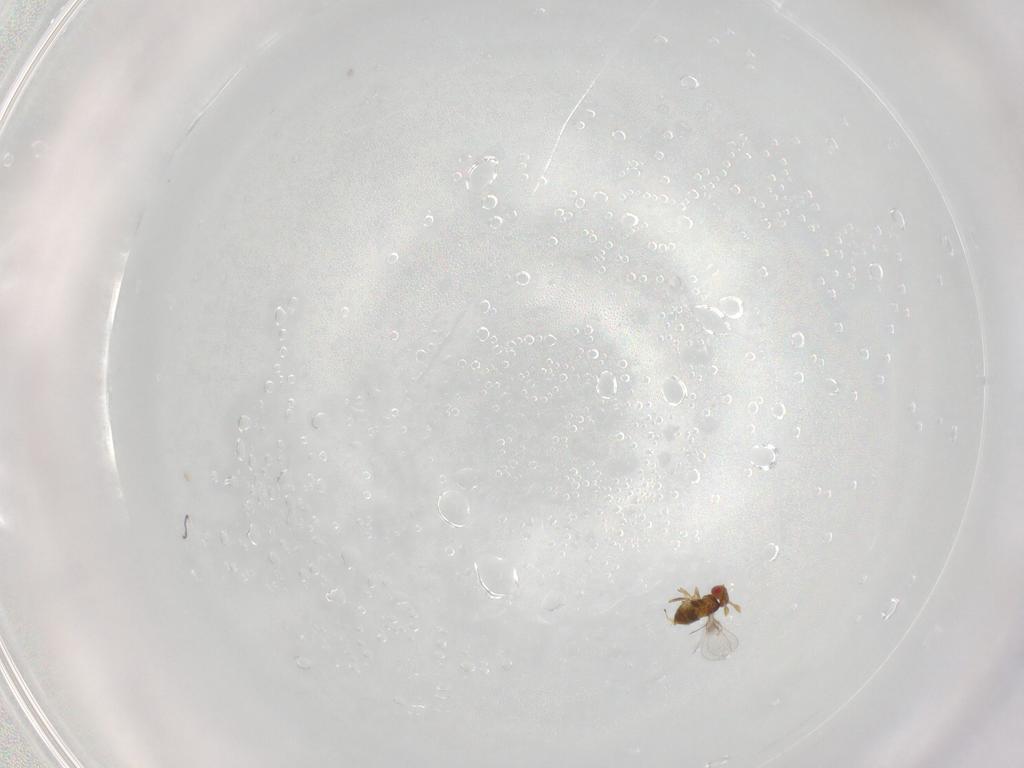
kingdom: Animalia
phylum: Arthropoda
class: Insecta
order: Hymenoptera
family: Trichogrammatidae
